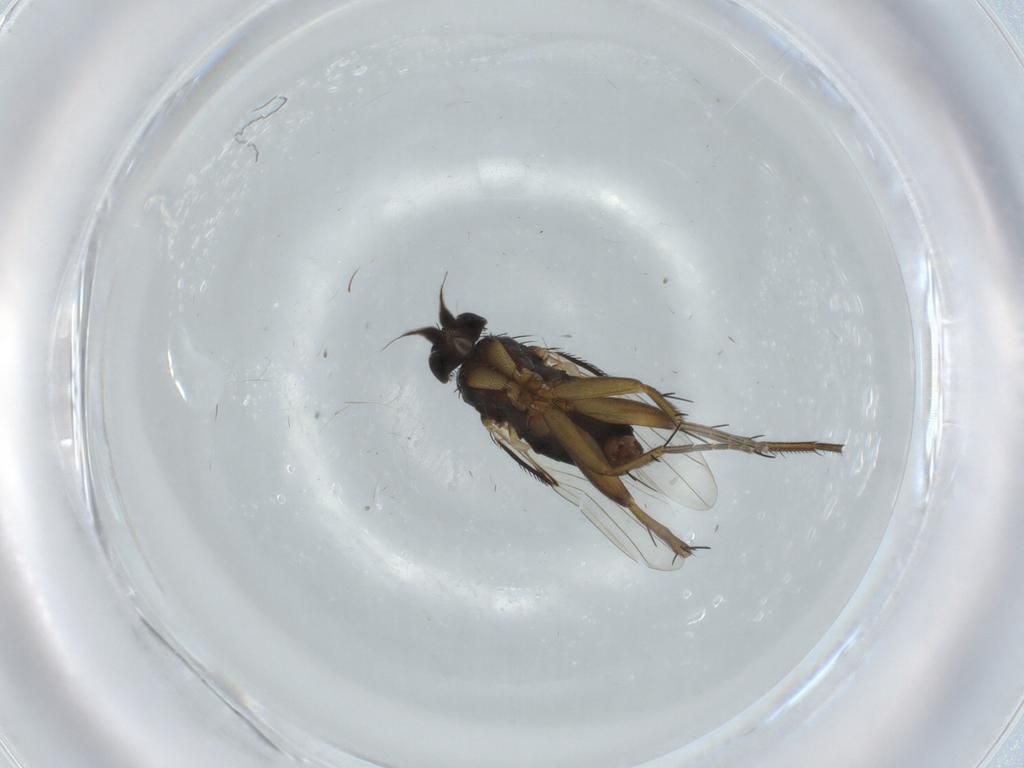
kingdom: Animalia
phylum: Arthropoda
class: Insecta
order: Diptera
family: Phoridae
